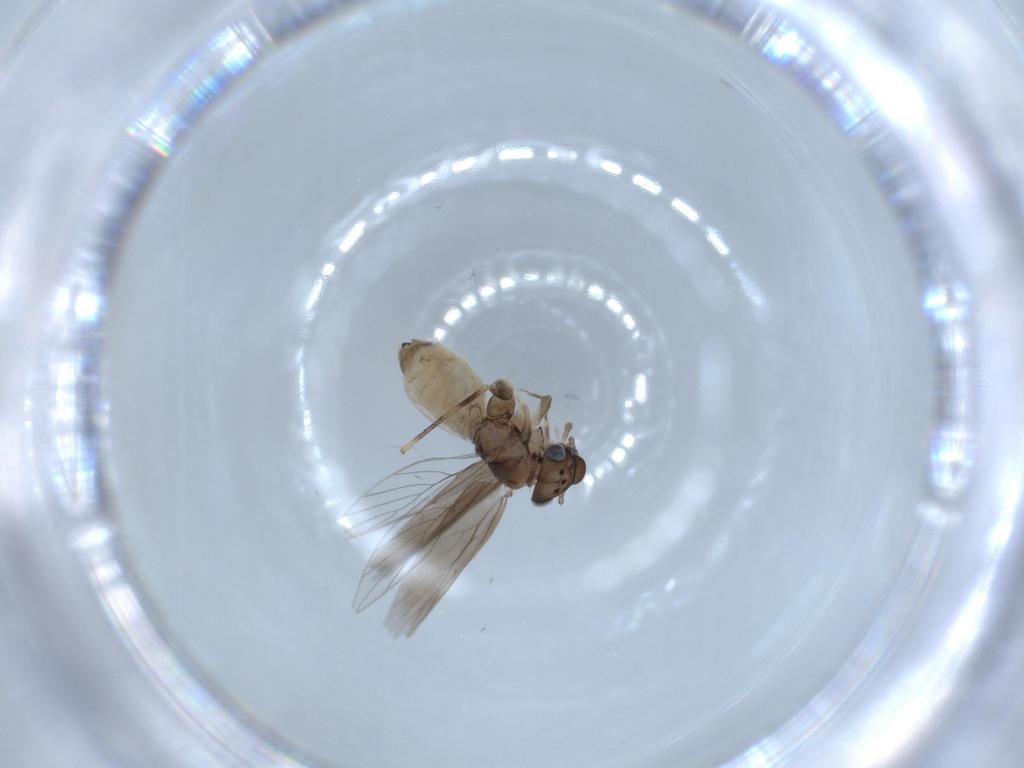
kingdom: Animalia
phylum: Arthropoda
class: Insecta
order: Psocodea
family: Lepidopsocidae
